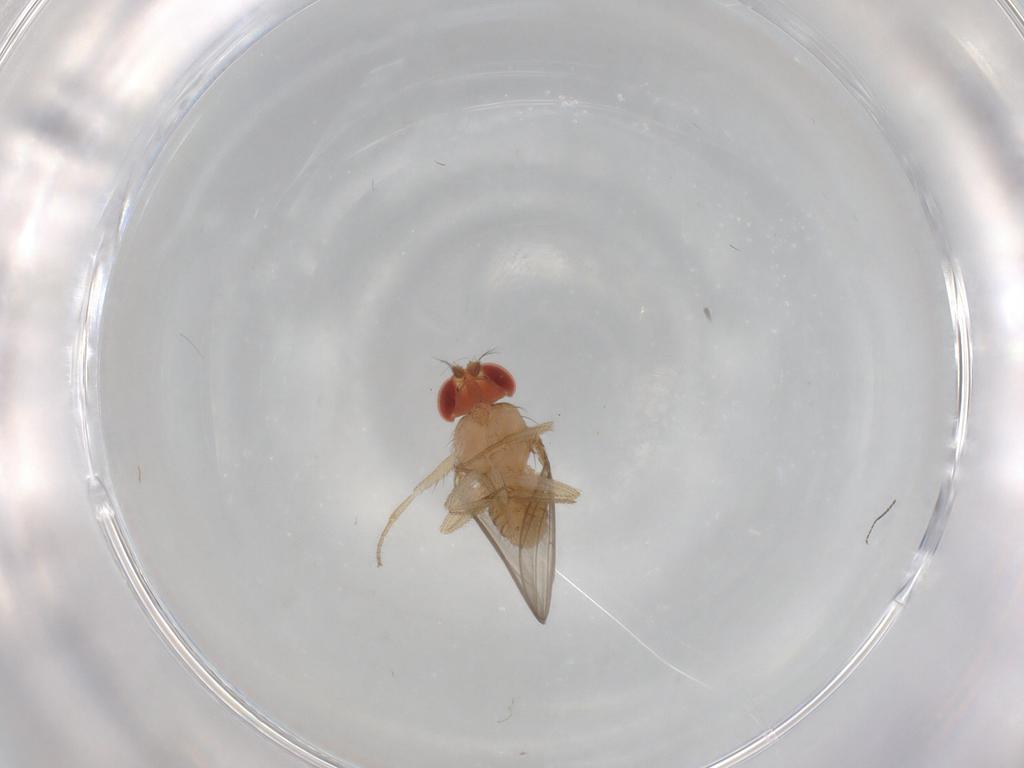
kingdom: Animalia
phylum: Arthropoda
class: Insecta
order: Diptera
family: Drosophilidae
